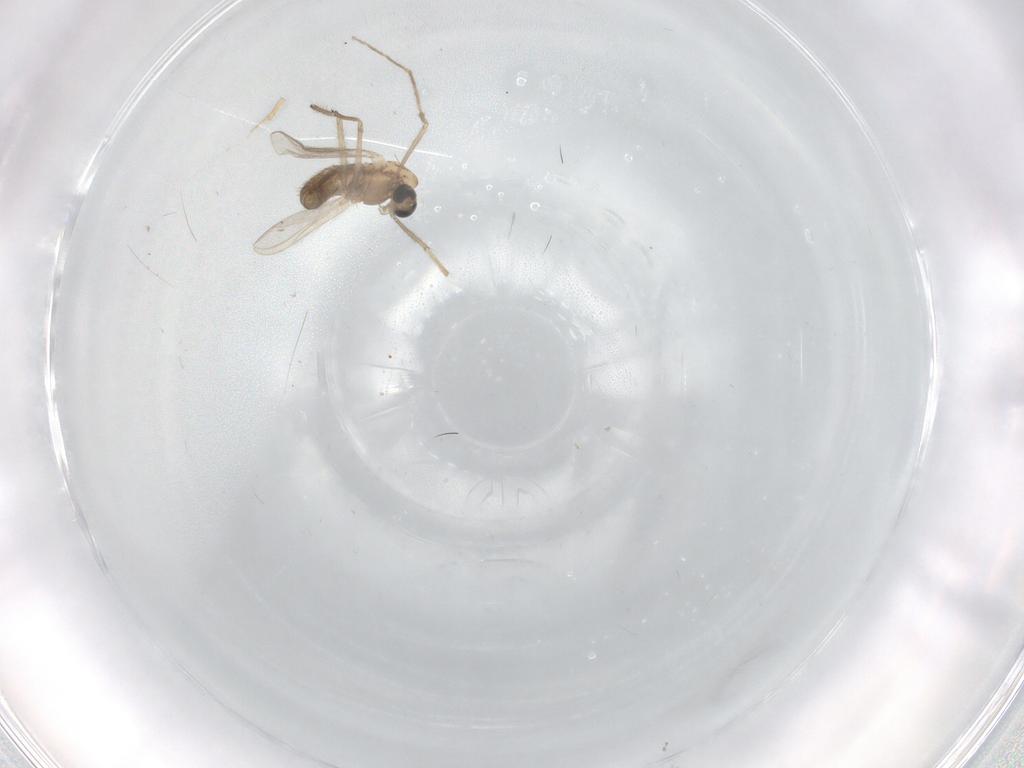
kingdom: Animalia
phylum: Arthropoda
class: Insecta
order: Diptera
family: Chironomidae
